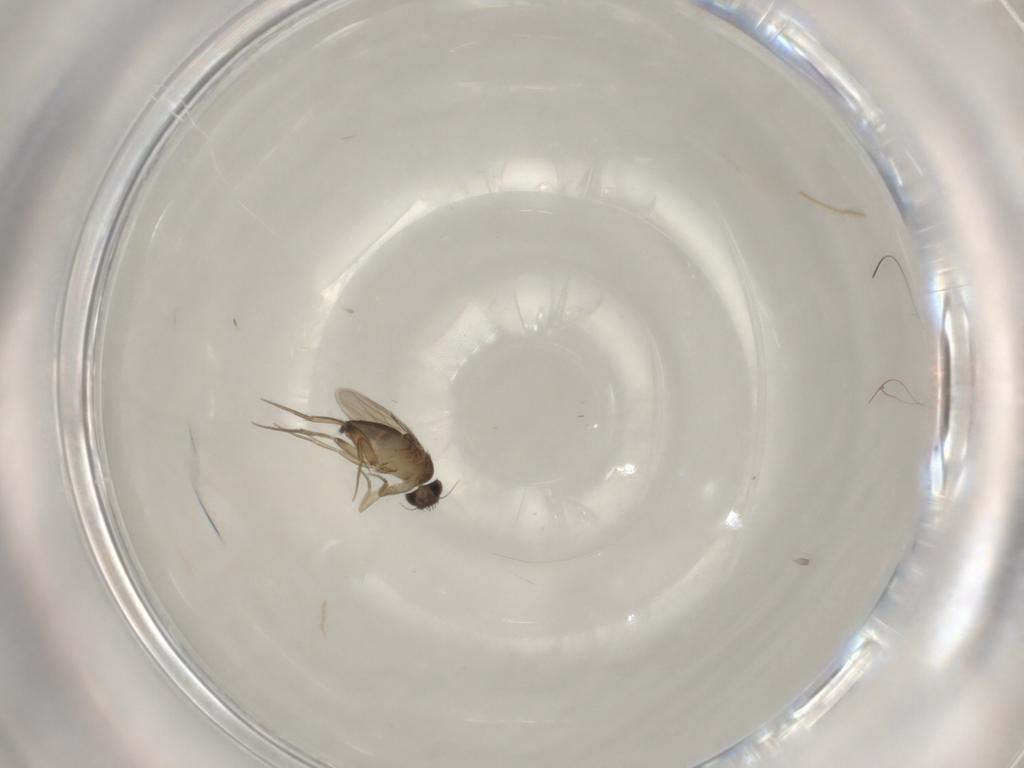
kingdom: Animalia
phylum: Arthropoda
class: Insecta
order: Diptera
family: Phoridae
